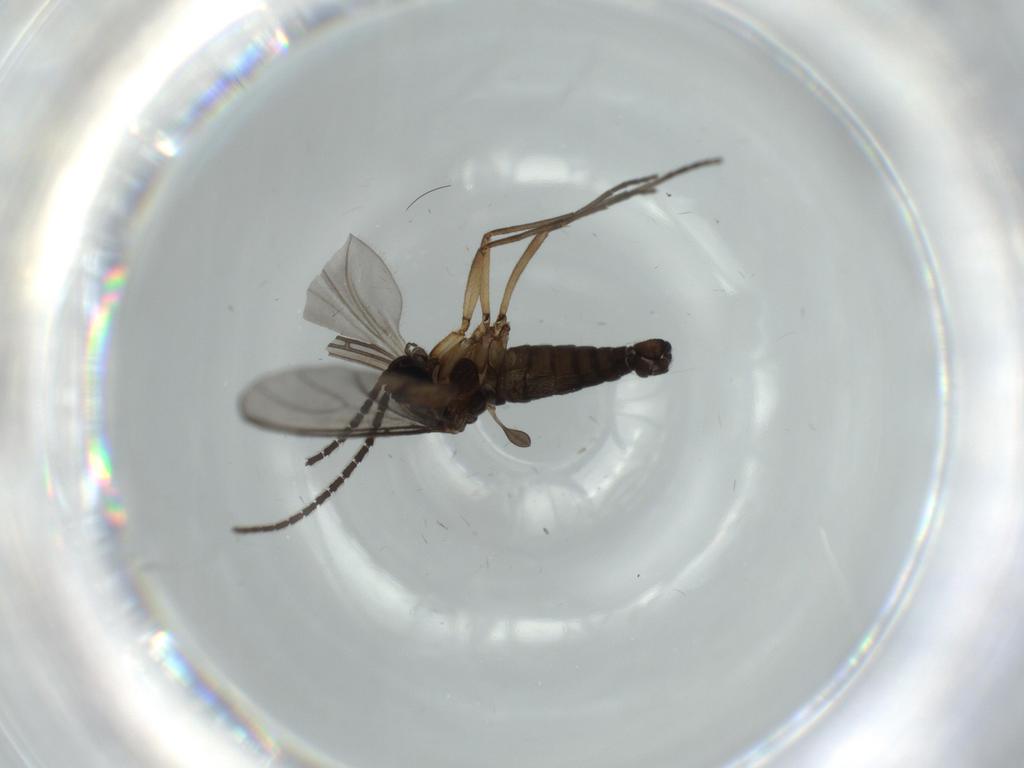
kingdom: Animalia
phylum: Arthropoda
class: Insecta
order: Diptera
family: Sciaridae
